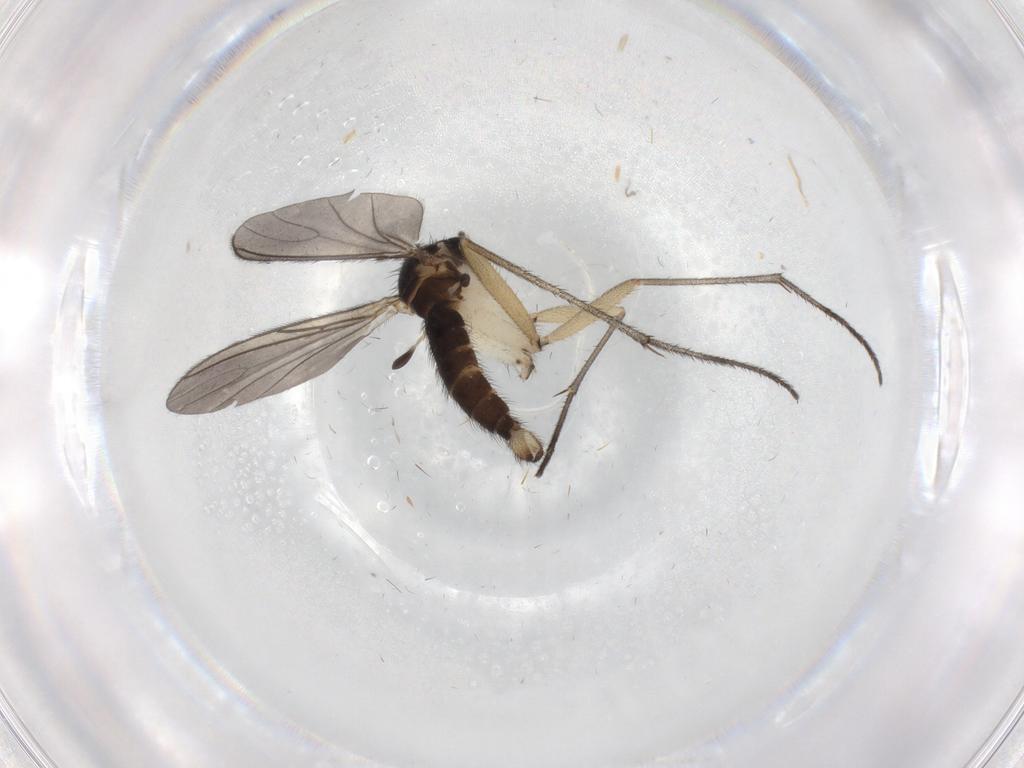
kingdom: Animalia
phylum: Arthropoda
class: Insecta
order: Diptera
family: Sciaridae
